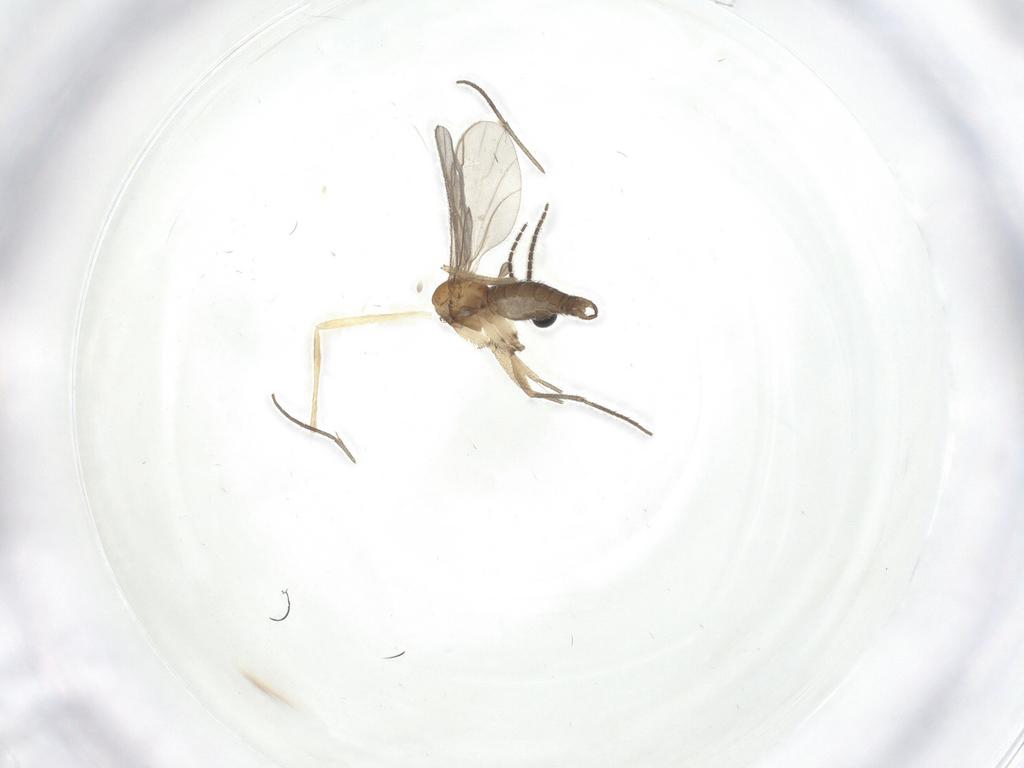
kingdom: Animalia
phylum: Arthropoda
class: Insecta
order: Diptera
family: Sciaridae
